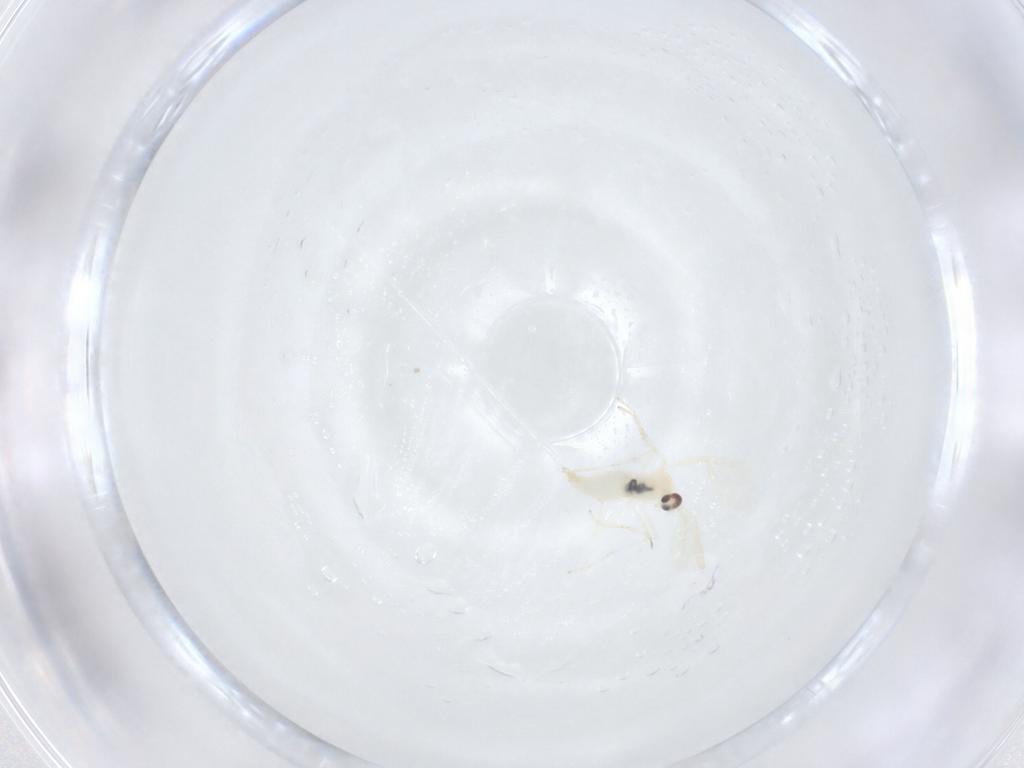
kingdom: Animalia
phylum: Arthropoda
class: Insecta
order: Diptera
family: Cecidomyiidae
